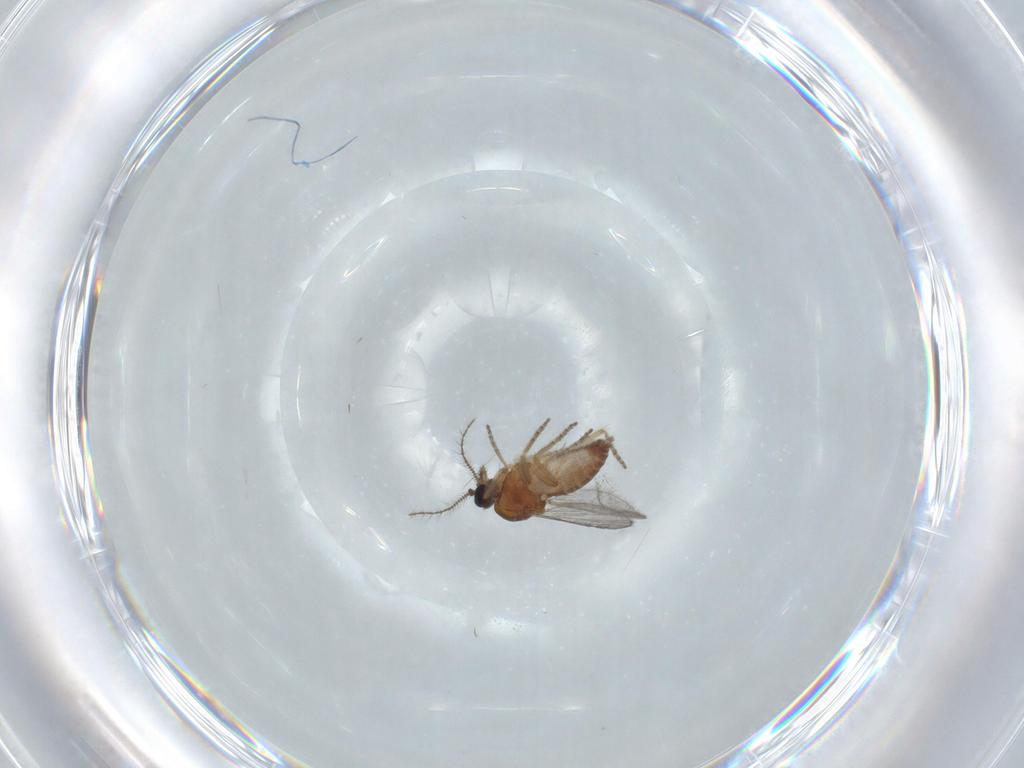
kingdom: Animalia
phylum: Arthropoda
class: Insecta
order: Diptera
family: Ceratopogonidae
